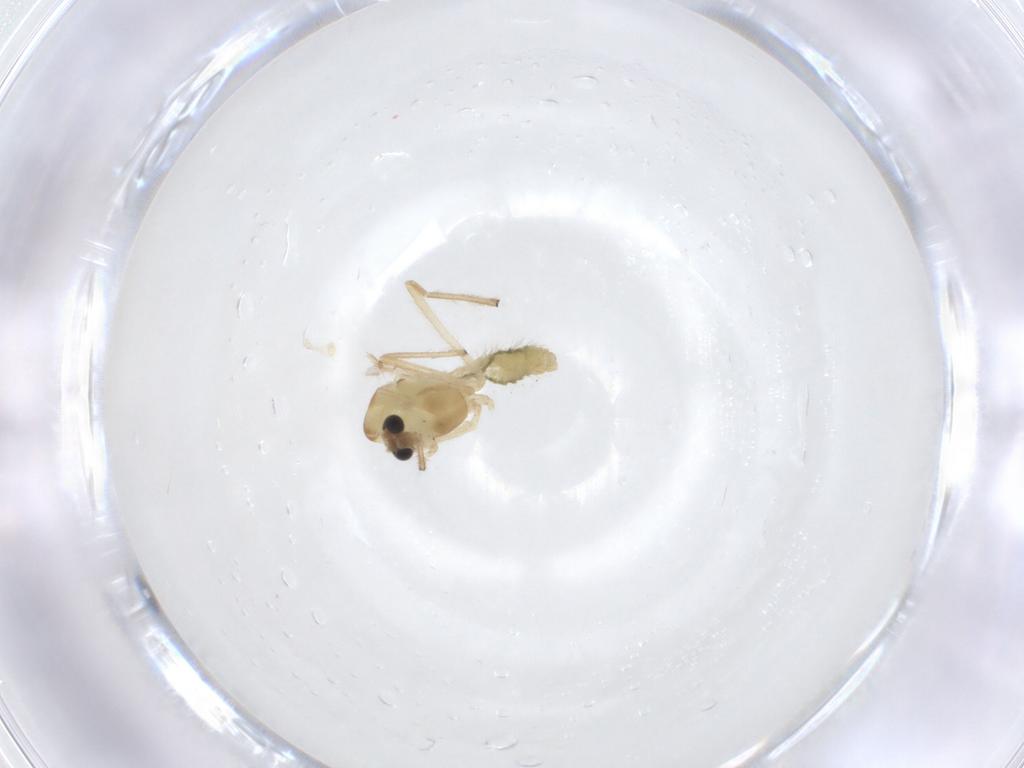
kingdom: Animalia
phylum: Arthropoda
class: Insecta
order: Diptera
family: Chironomidae
